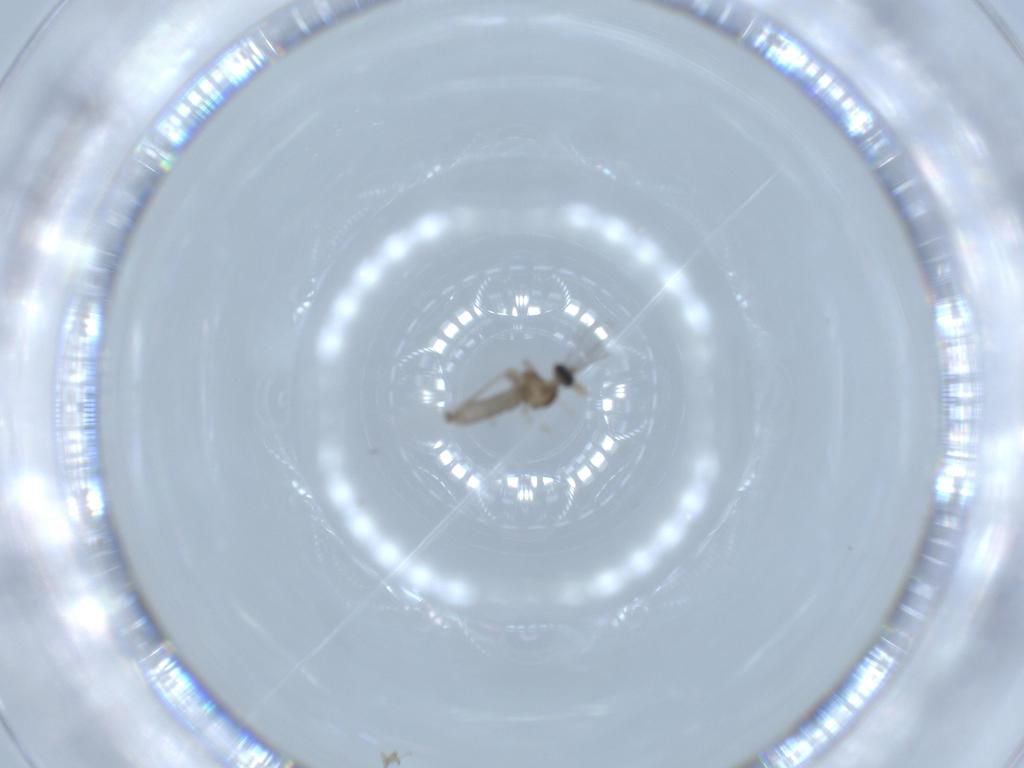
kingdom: Animalia
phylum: Arthropoda
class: Insecta
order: Diptera
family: Cecidomyiidae
